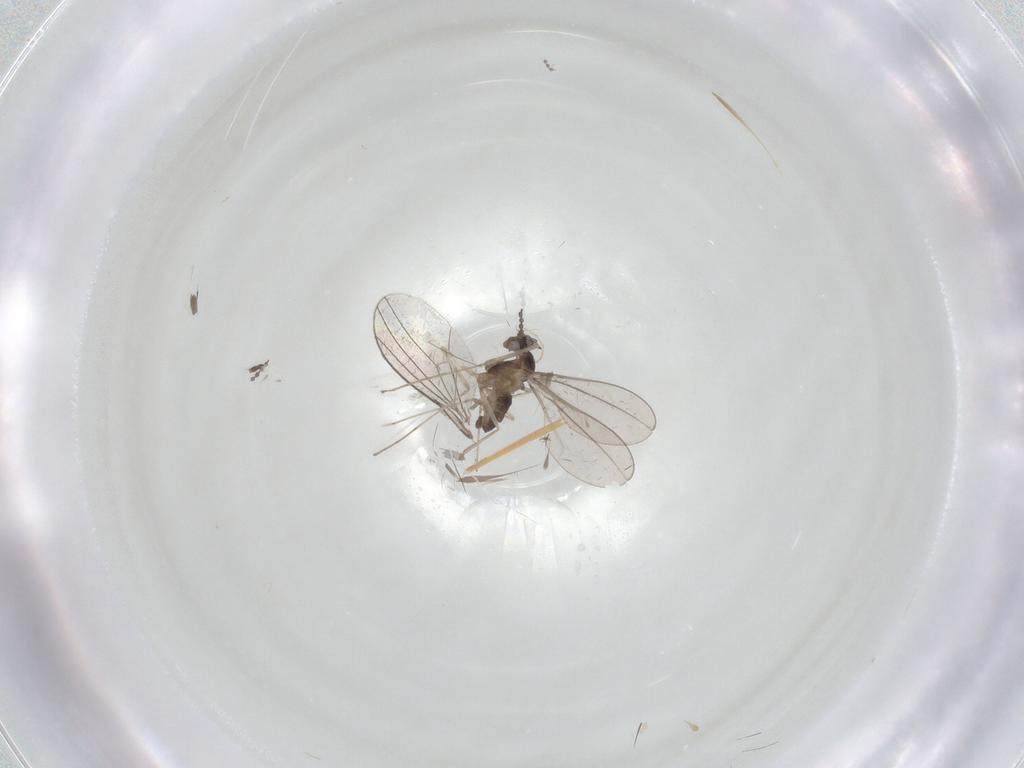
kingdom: Animalia
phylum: Arthropoda
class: Insecta
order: Diptera
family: Cecidomyiidae
